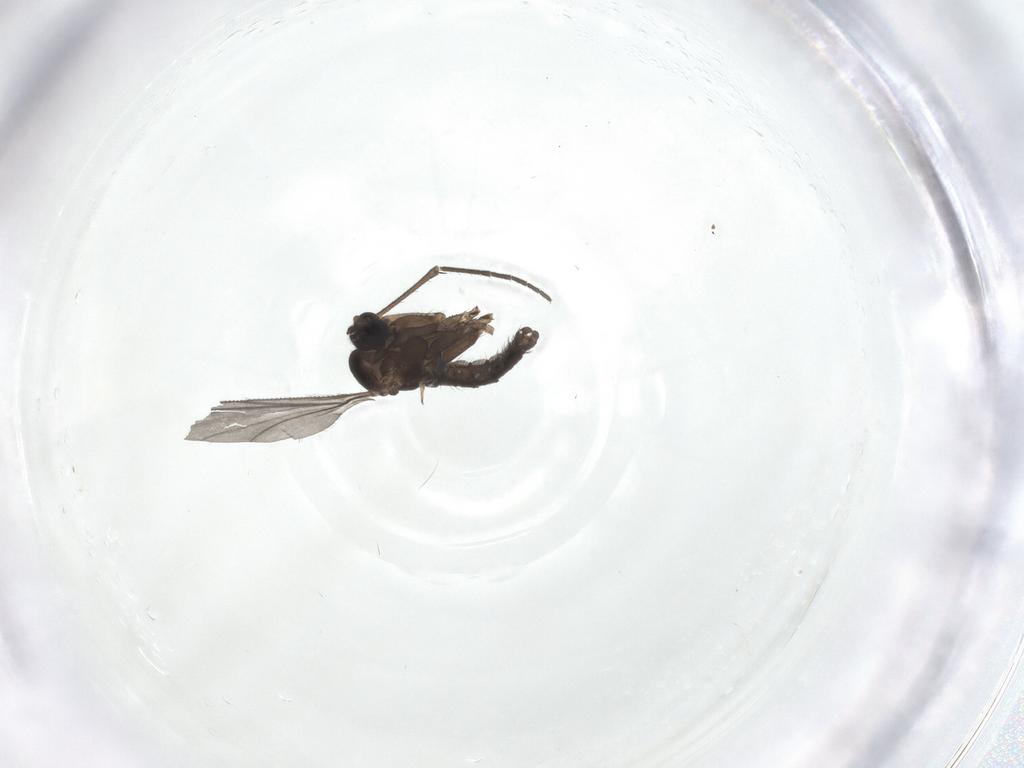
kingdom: Animalia
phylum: Arthropoda
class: Insecta
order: Diptera
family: Sciaridae
